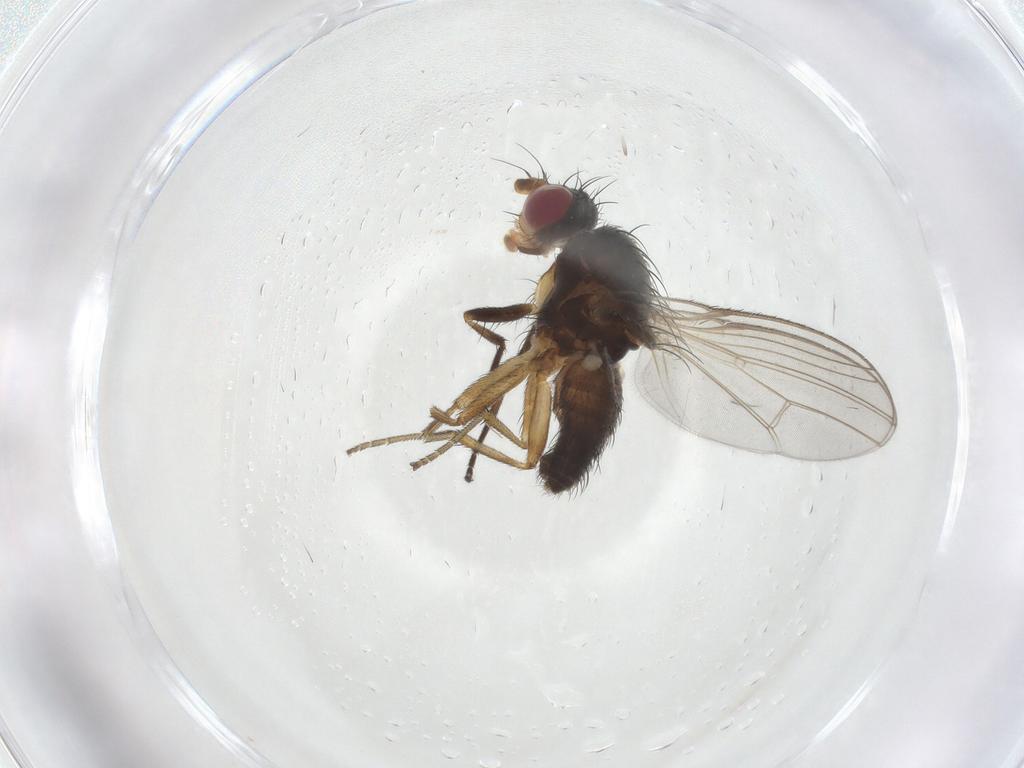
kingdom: Animalia
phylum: Arthropoda
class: Insecta
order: Diptera
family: Heleomyzidae
